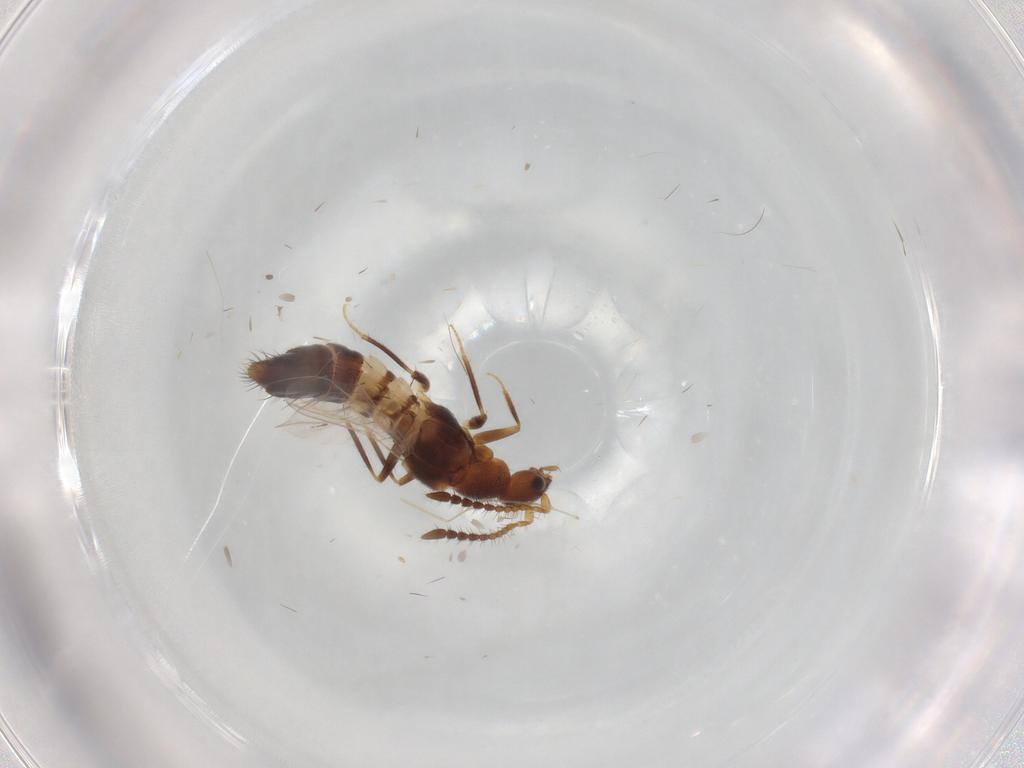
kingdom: Animalia
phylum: Arthropoda
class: Insecta
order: Coleoptera
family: Staphylinidae
